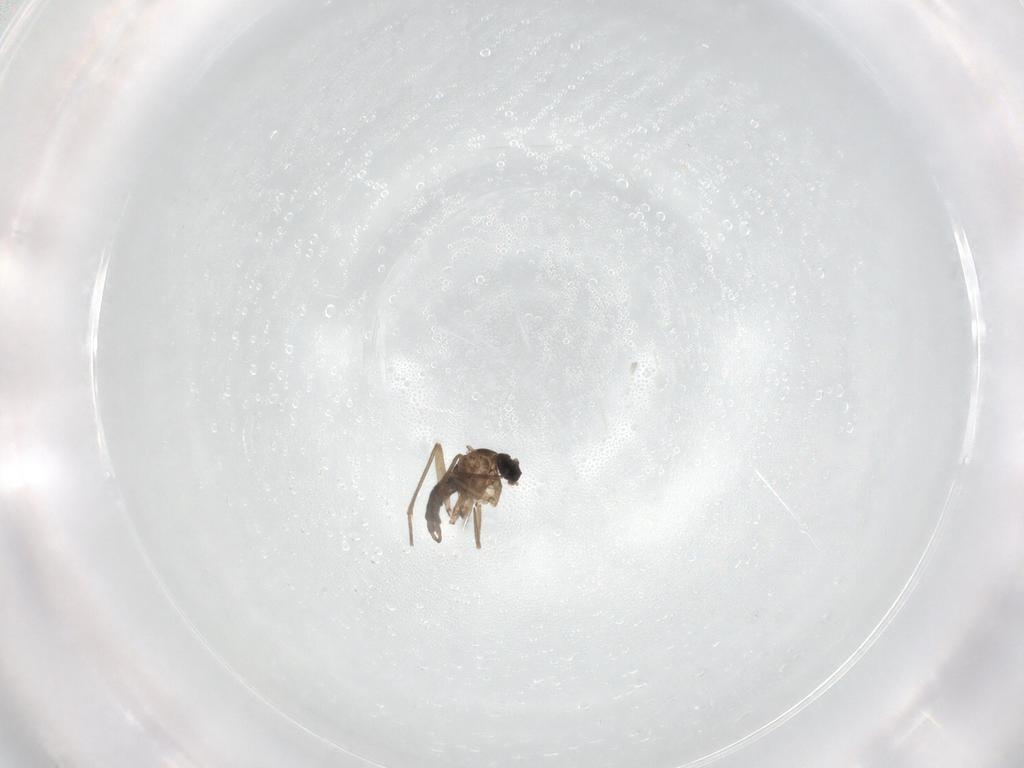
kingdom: Animalia
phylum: Arthropoda
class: Insecta
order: Diptera
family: Sciaridae
